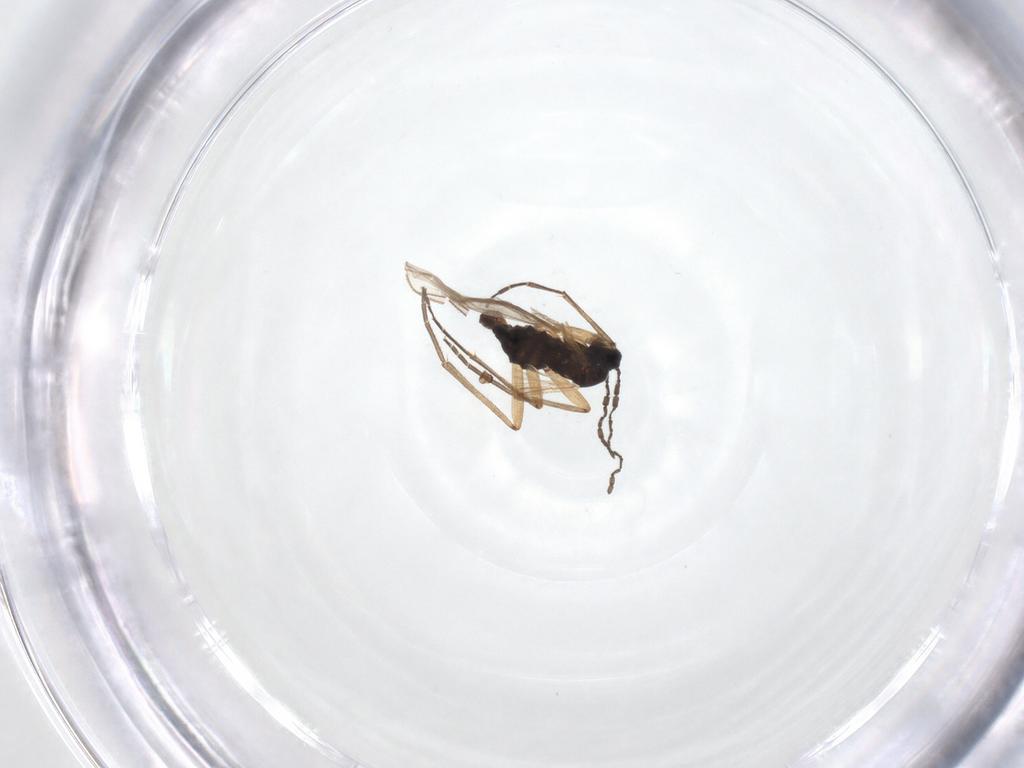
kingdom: Animalia
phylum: Arthropoda
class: Insecta
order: Diptera
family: Sciaridae
